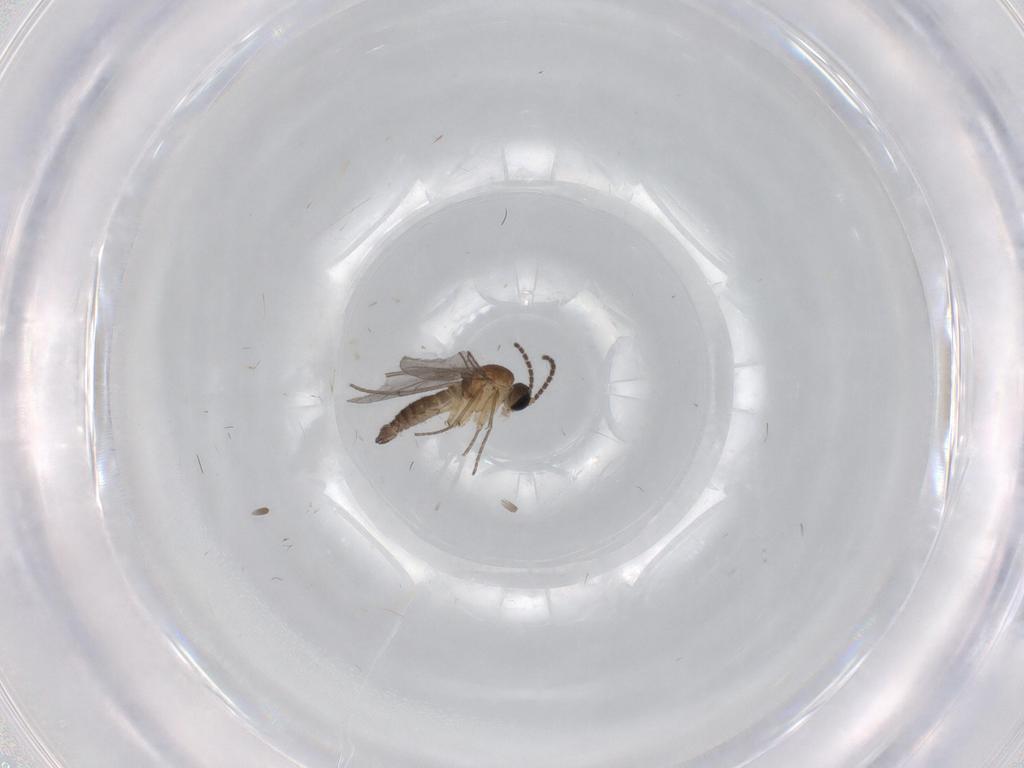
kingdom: Animalia
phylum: Arthropoda
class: Insecta
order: Diptera
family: Sciaridae
